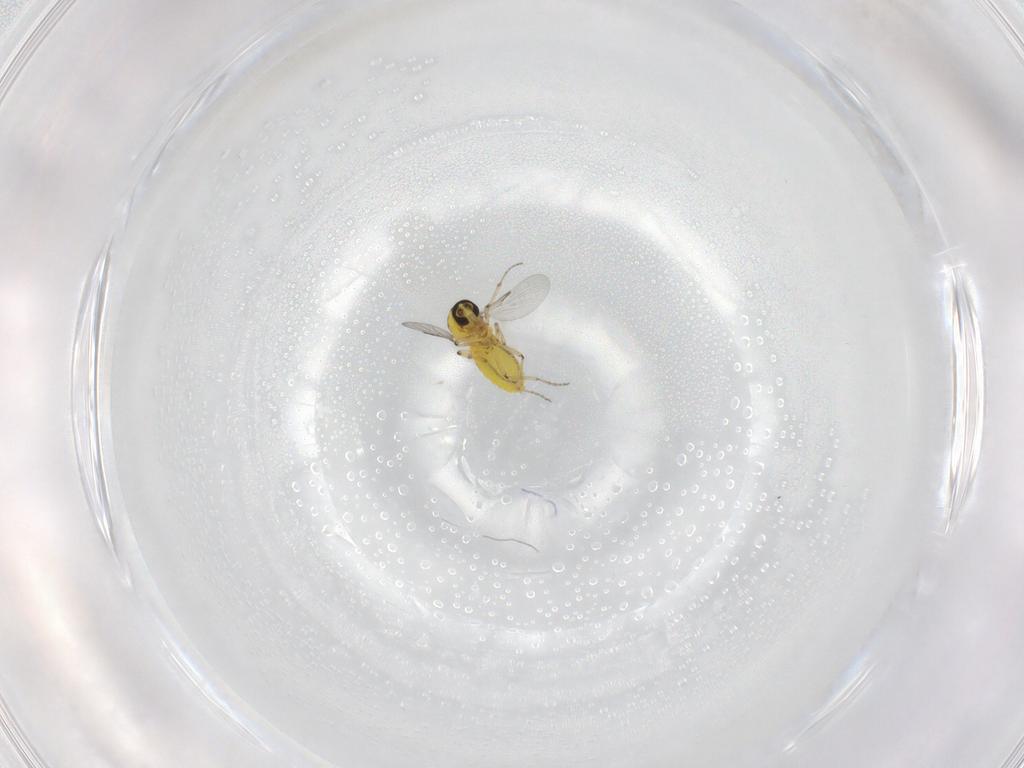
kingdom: Animalia
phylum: Arthropoda
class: Insecta
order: Diptera
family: Ceratopogonidae
